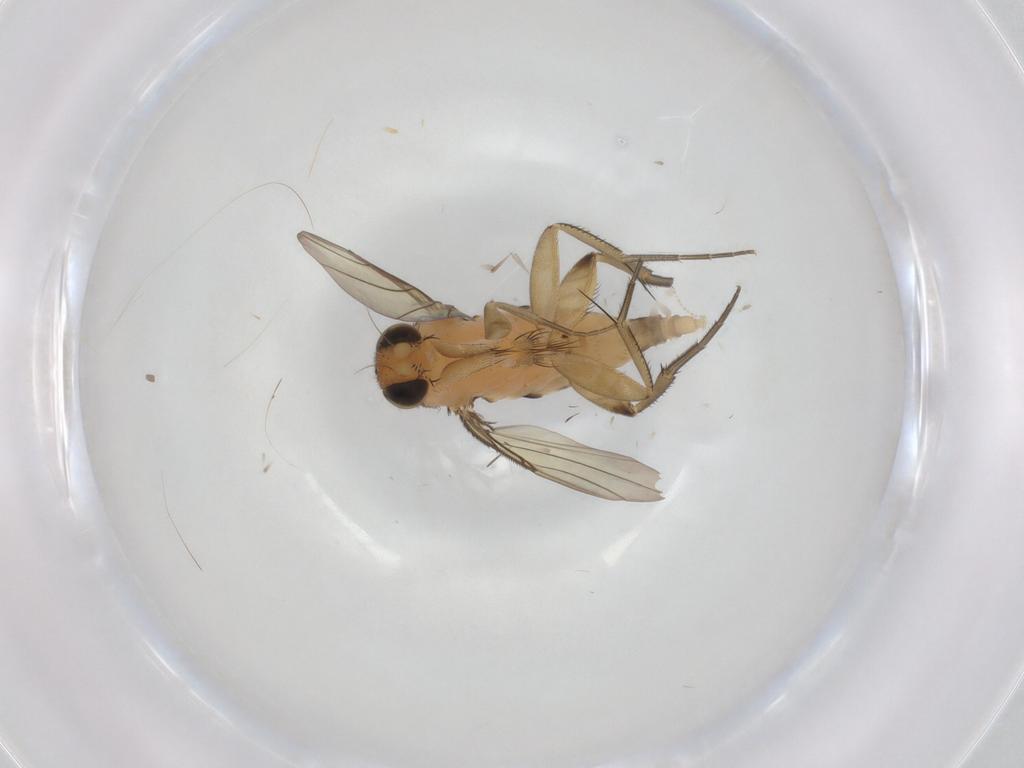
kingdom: Animalia
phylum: Arthropoda
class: Insecta
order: Diptera
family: Phoridae
